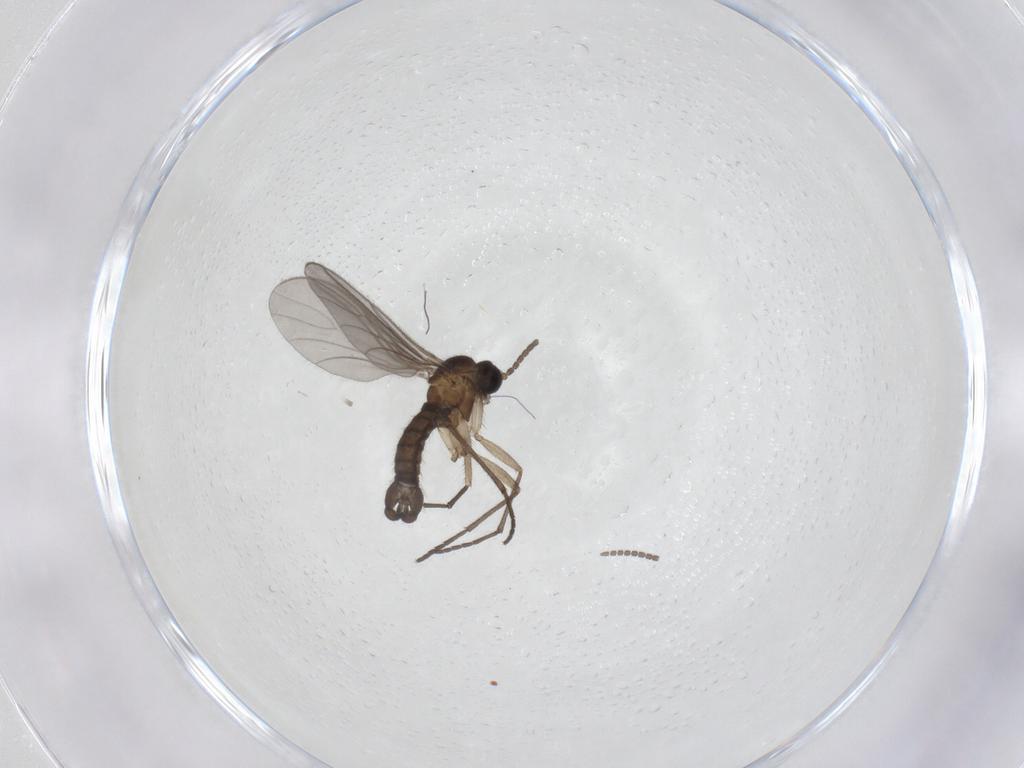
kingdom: Animalia
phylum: Arthropoda
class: Insecta
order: Diptera
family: Sciaridae
